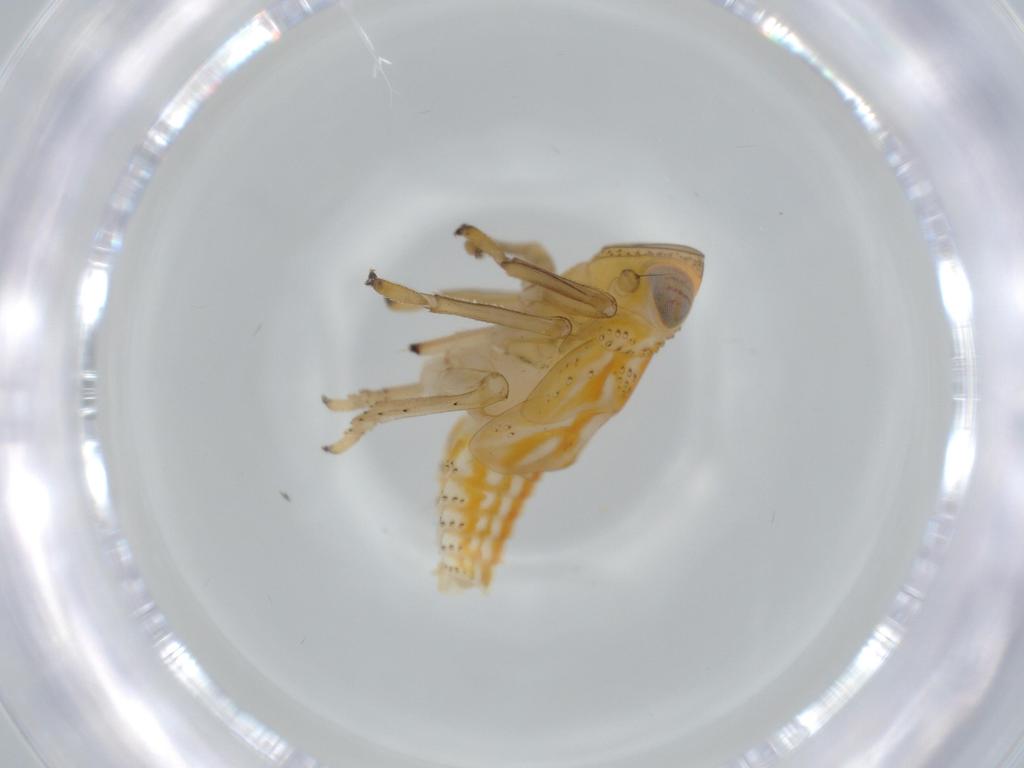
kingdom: Animalia
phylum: Arthropoda
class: Insecta
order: Hemiptera
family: Issidae
